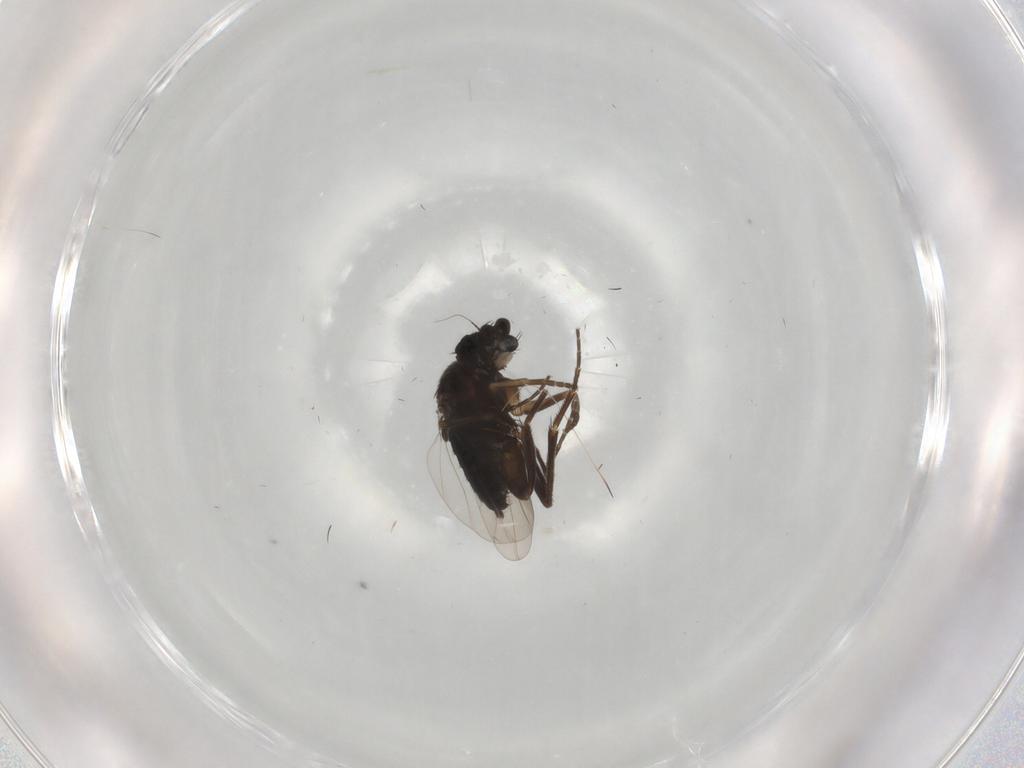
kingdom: Animalia
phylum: Arthropoda
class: Insecta
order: Diptera
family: Phoridae
